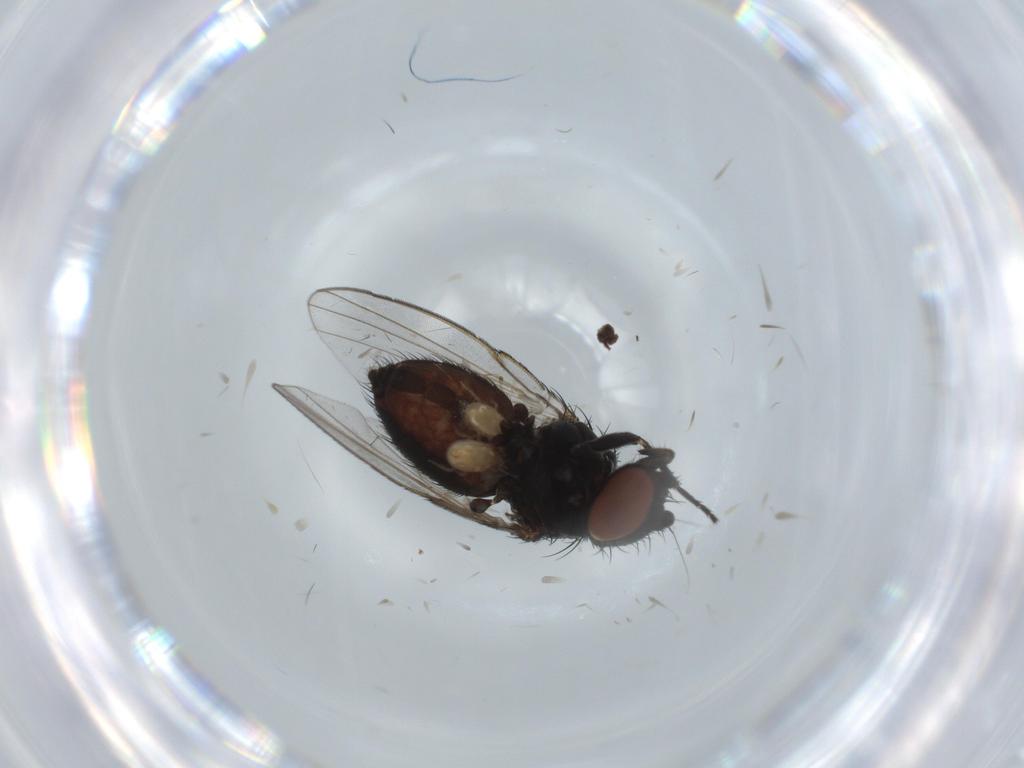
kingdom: Animalia
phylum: Arthropoda
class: Insecta
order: Diptera
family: Milichiidae
